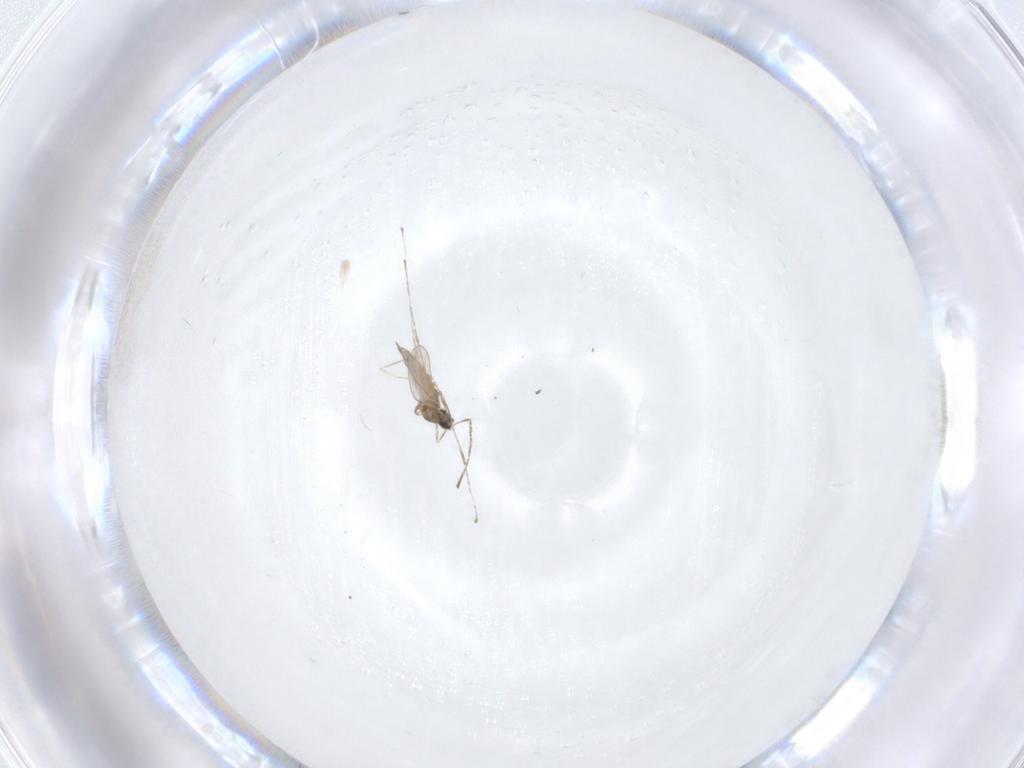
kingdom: Animalia
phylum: Arthropoda
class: Insecta
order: Diptera
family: Cecidomyiidae
